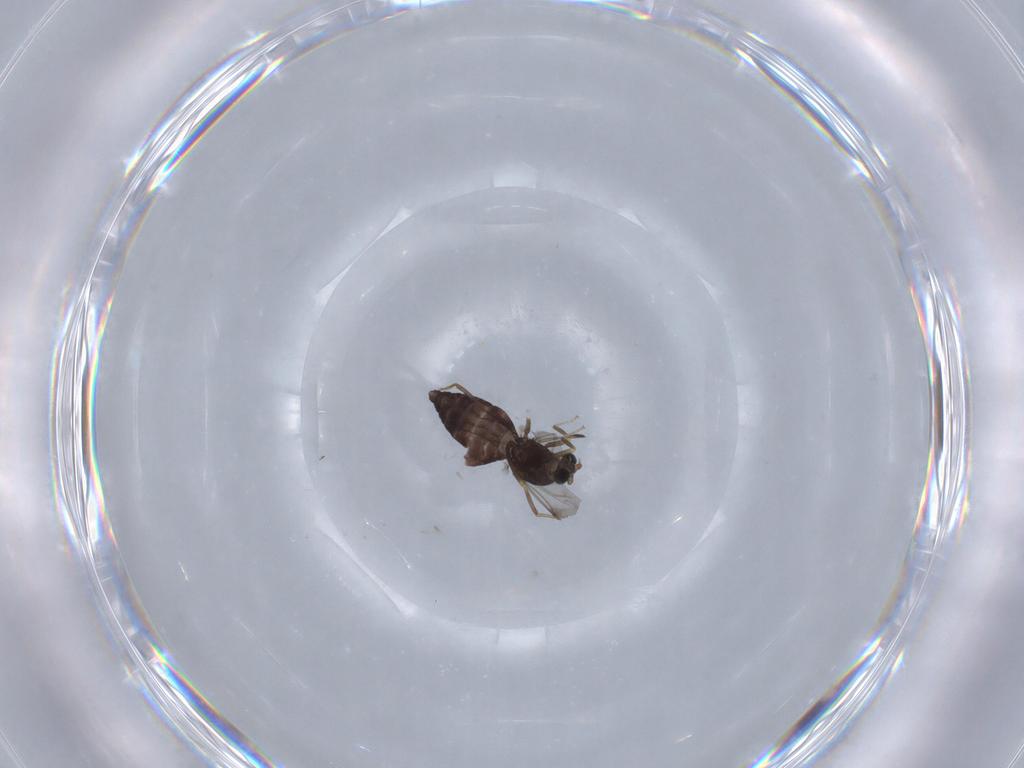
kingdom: Animalia
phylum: Arthropoda
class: Insecta
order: Diptera
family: Ceratopogonidae
